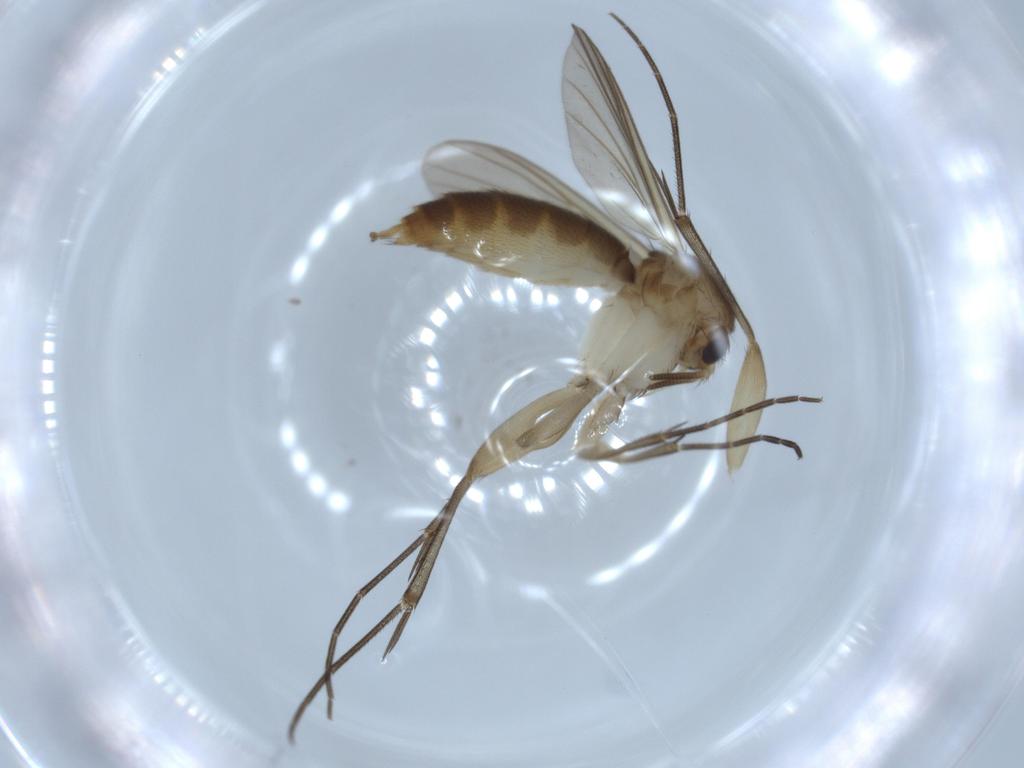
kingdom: Animalia
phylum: Arthropoda
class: Insecta
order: Diptera
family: Mycetophilidae
